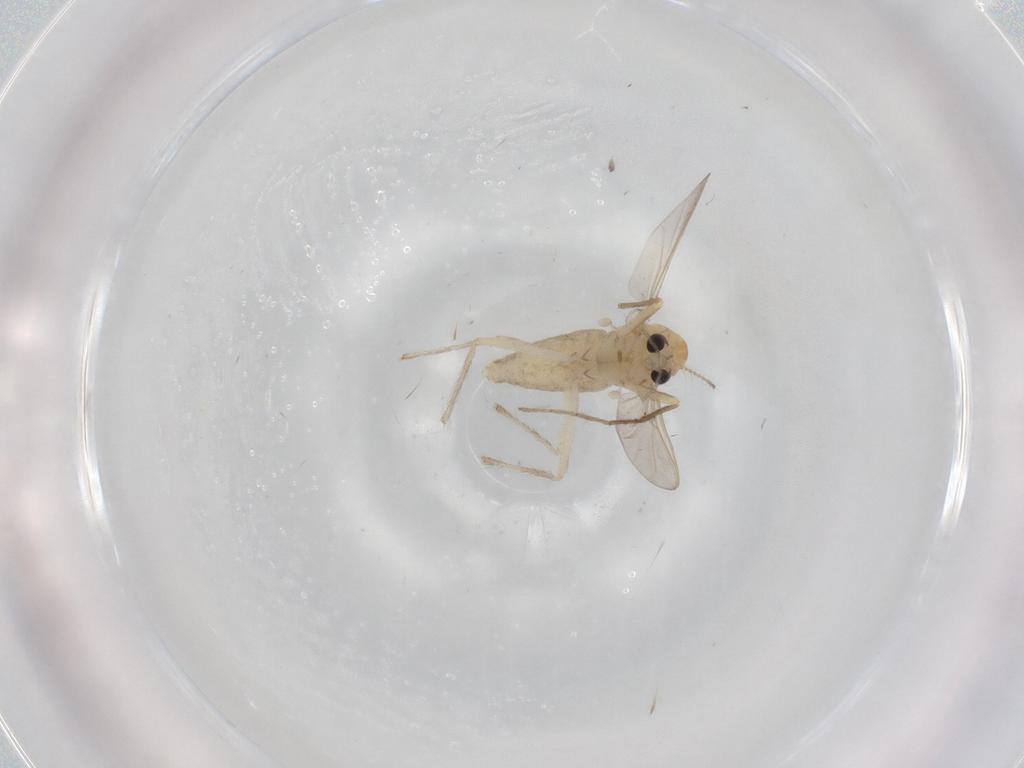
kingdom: Animalia
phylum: Arthropoda
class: Insecta
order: Diptera
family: Chironomidae
